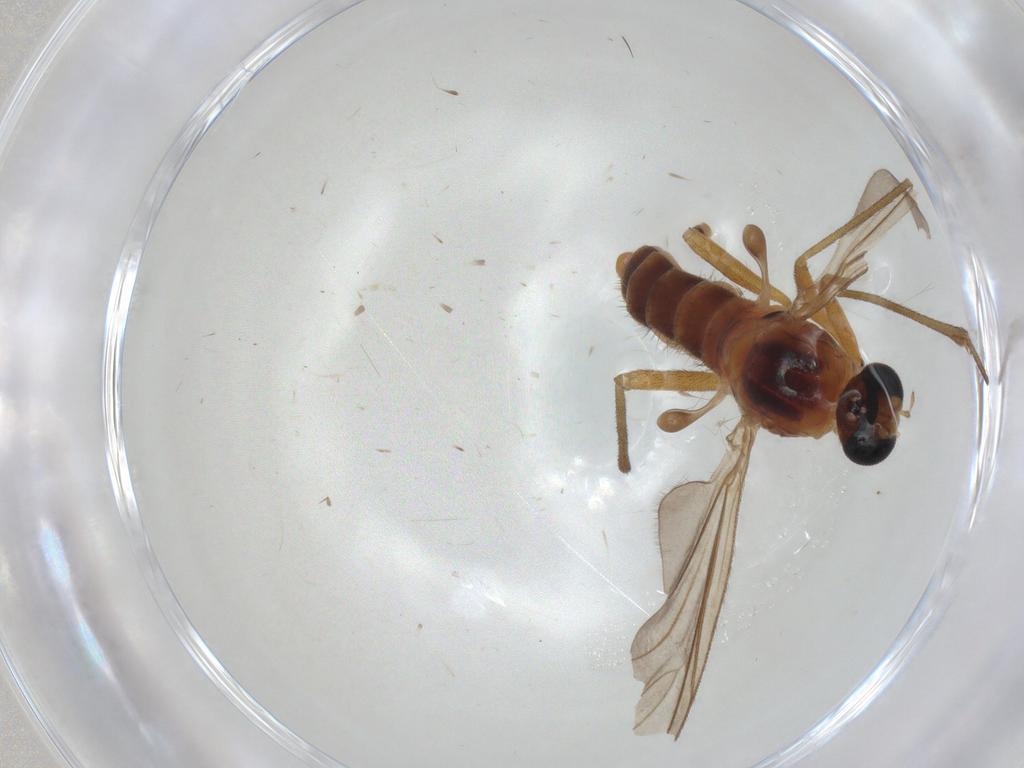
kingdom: Animalia
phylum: Arthropoda
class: Insecta
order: Diptera
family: Sciaridae
